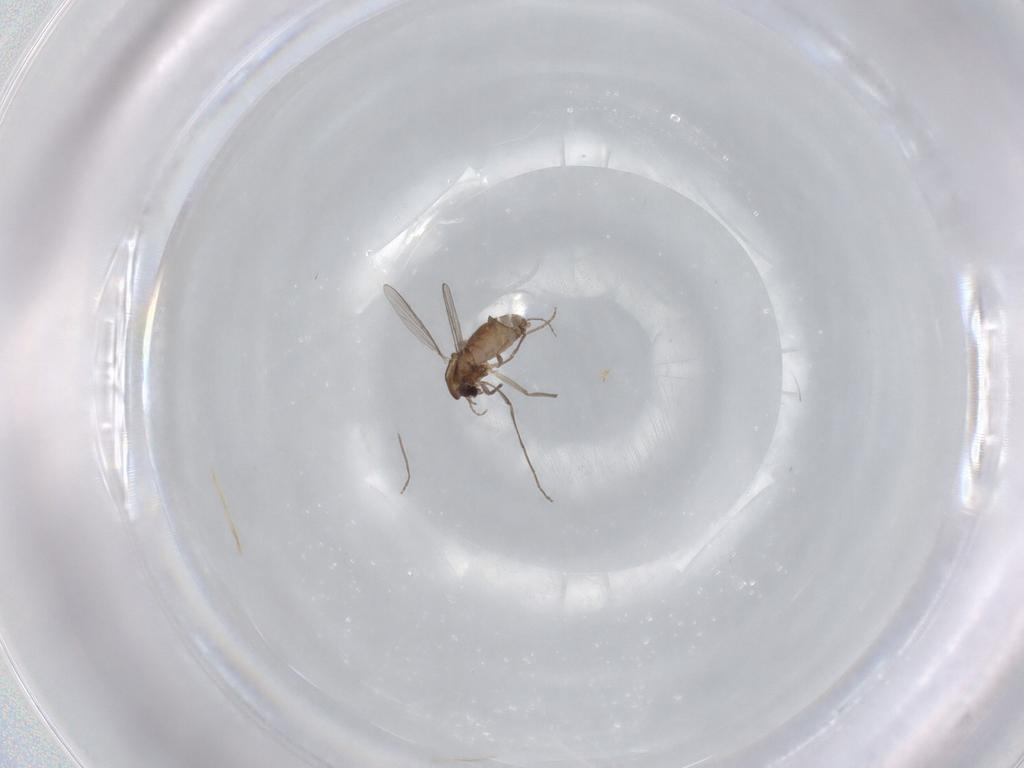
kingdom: Animalia
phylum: Arthropoda
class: Insecta
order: Diptera
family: Chironomidae
